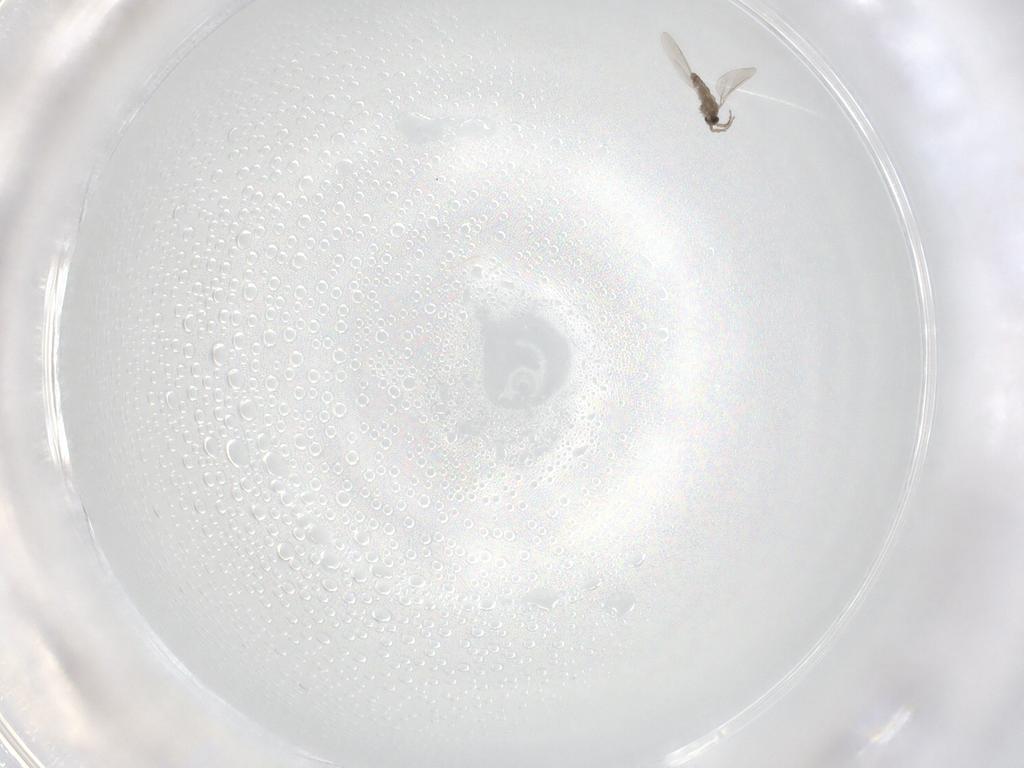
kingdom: Animalia
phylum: Arthropoda
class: Insecta
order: Diptera
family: Cecidomyiidae
